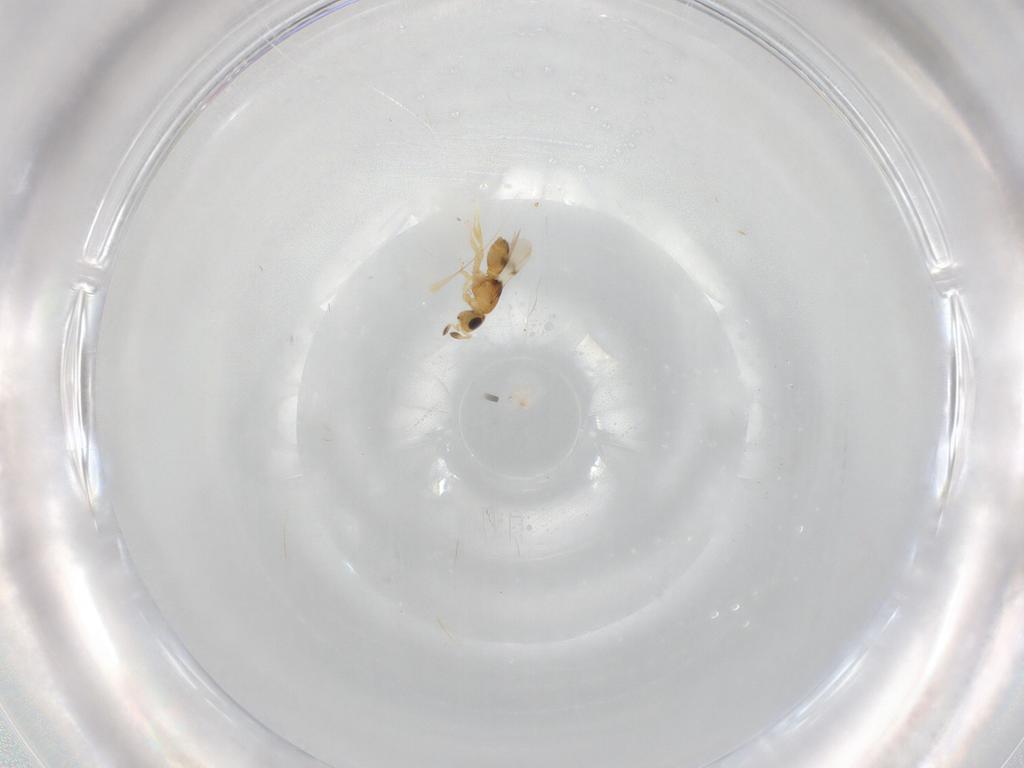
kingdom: Animalia
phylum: Arthropoda
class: Insecta
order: Hymenoptera
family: Scelionidae
